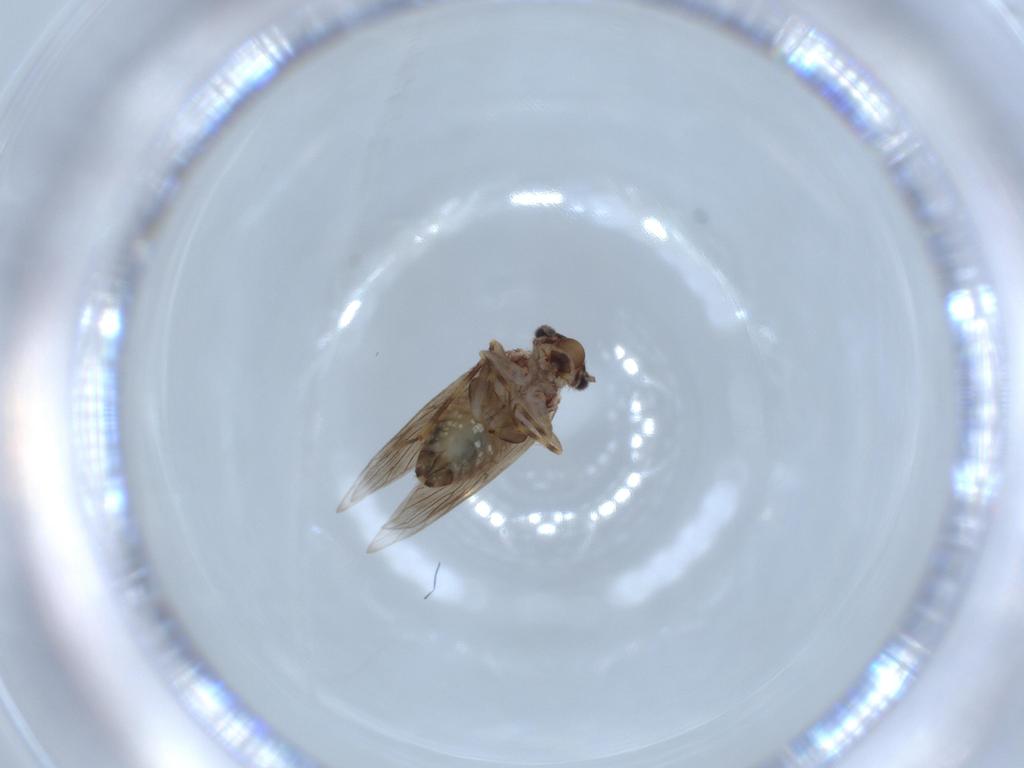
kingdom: Animalia
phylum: Arthropoda
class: Insecta
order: Psocodea
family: Lepidopsocidae
